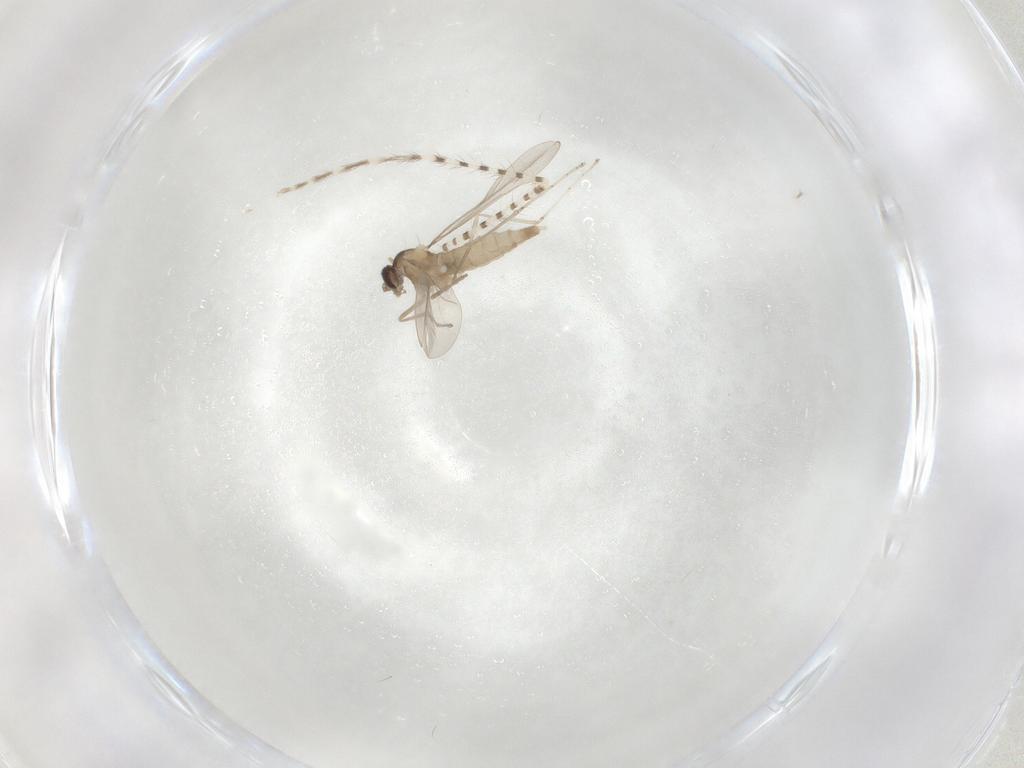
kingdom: Animalia
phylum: Arthropoda
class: Insecta
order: Diptera
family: Cecidomyiidae
